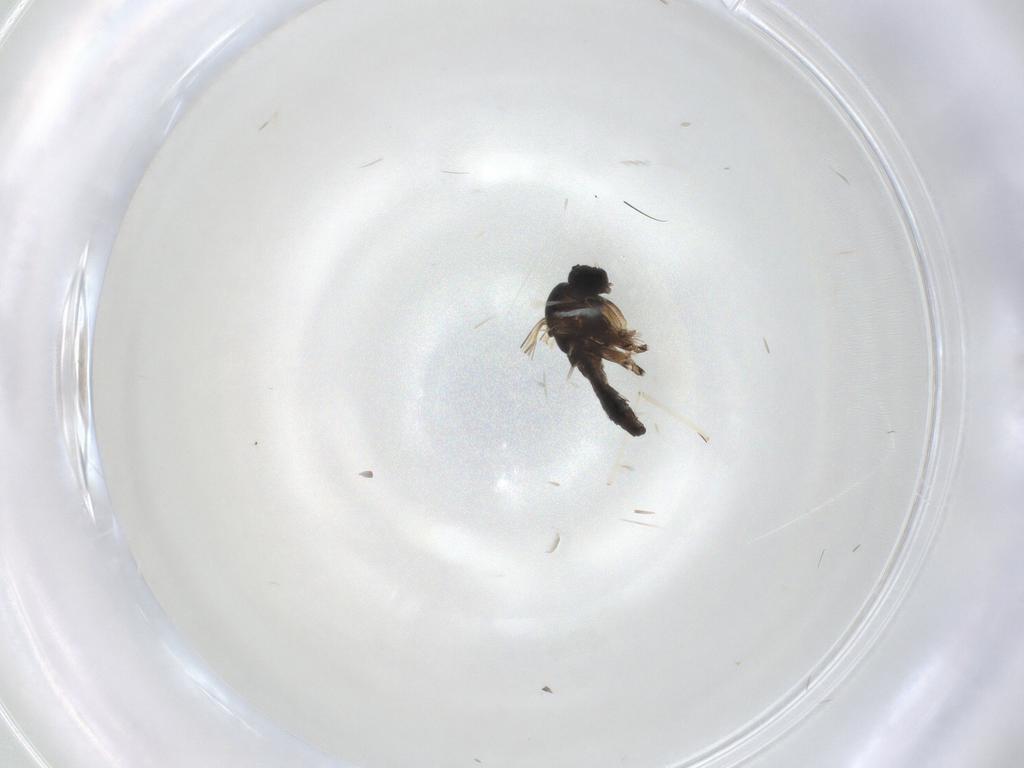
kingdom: Animalia
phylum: Arthropoda
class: Insecta
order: Diptera
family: Sciaridae
